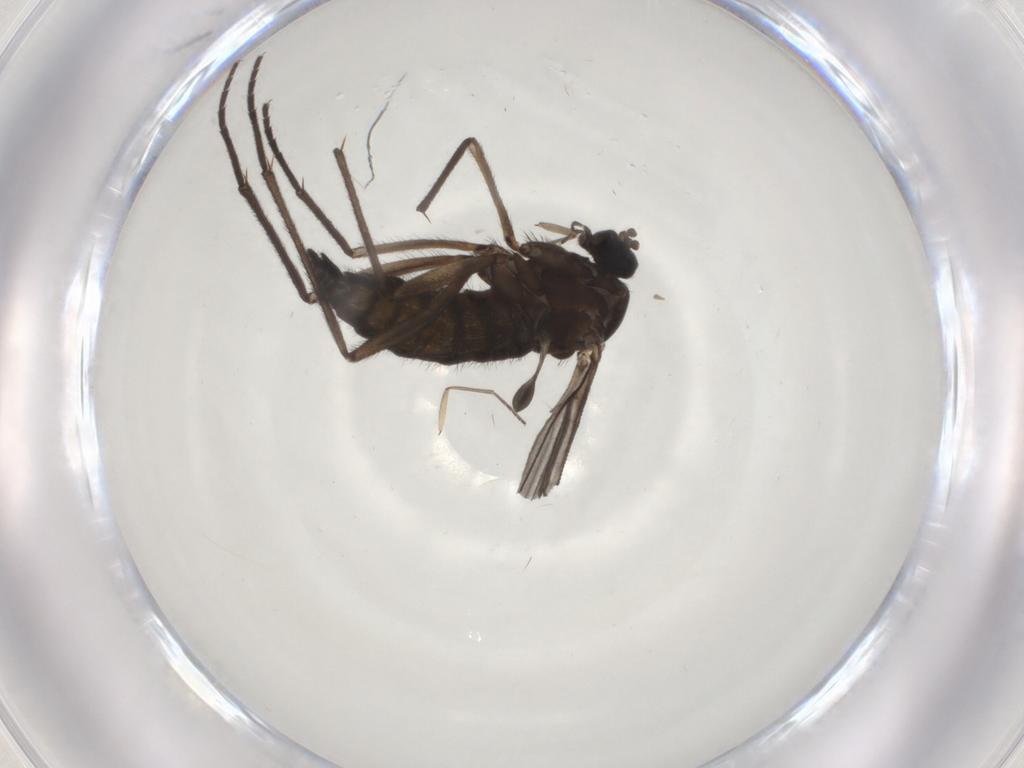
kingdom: Animalia
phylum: Arthropoda
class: Insecta
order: Diptera
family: Sciaridae
